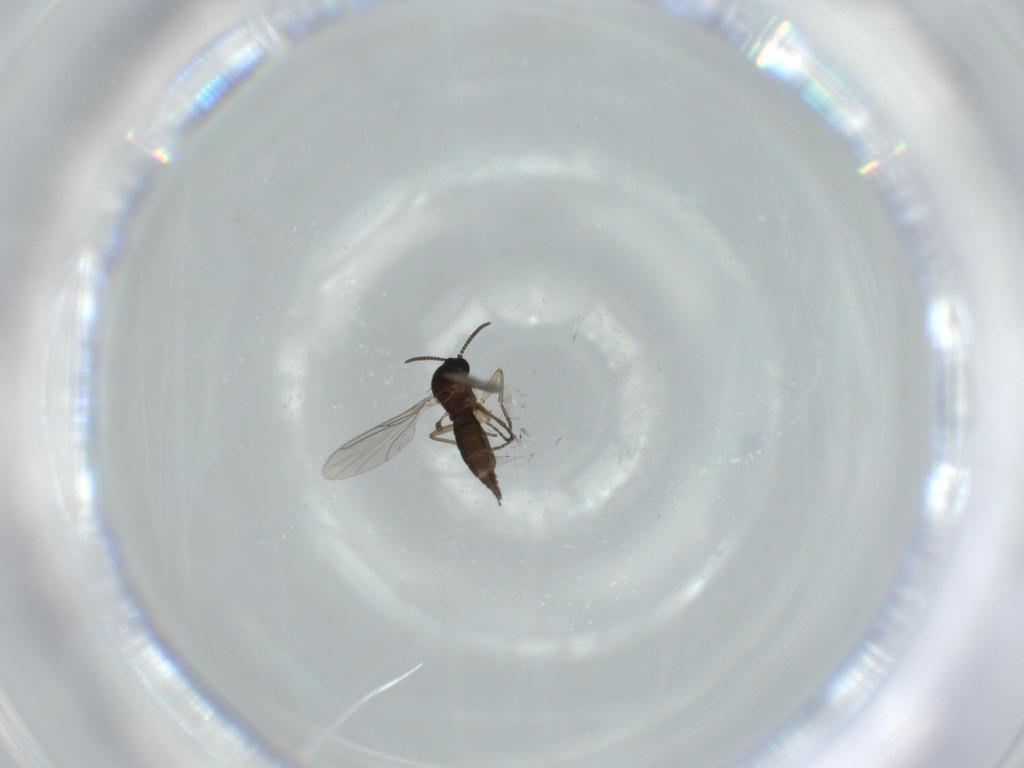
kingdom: Animalia
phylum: Arthropoda
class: Insecta
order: Diptera
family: Sciaridae
